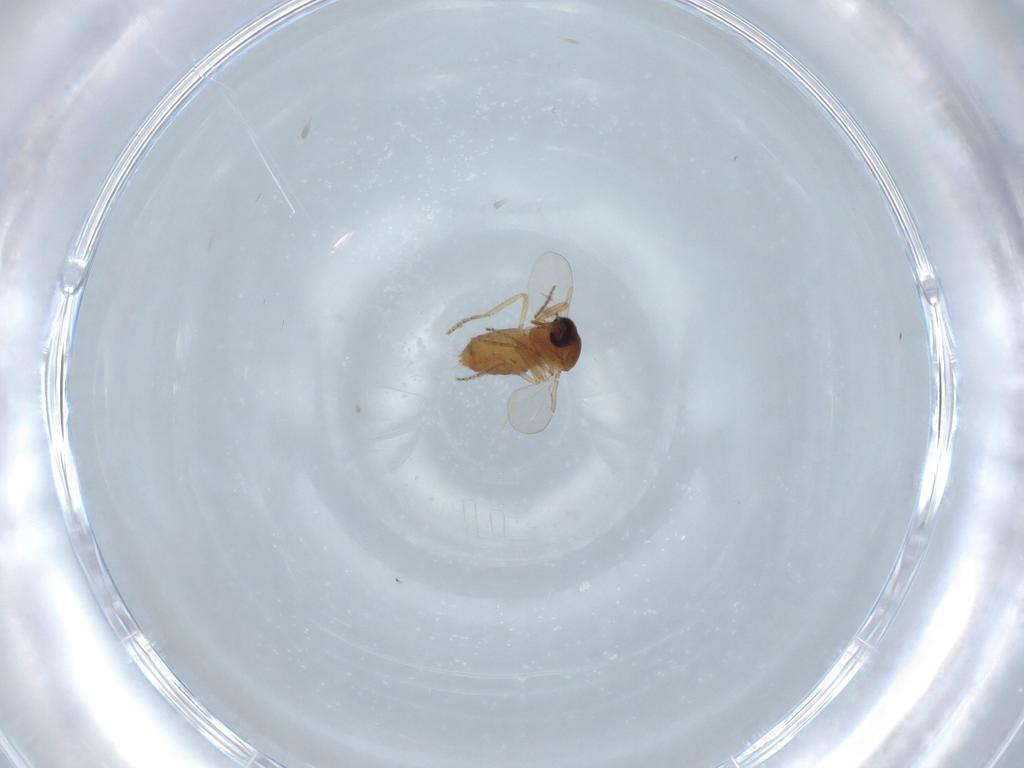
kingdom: Animalia
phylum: Arthropoda
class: Insecta
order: Diptera
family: Ceratopogonidae
